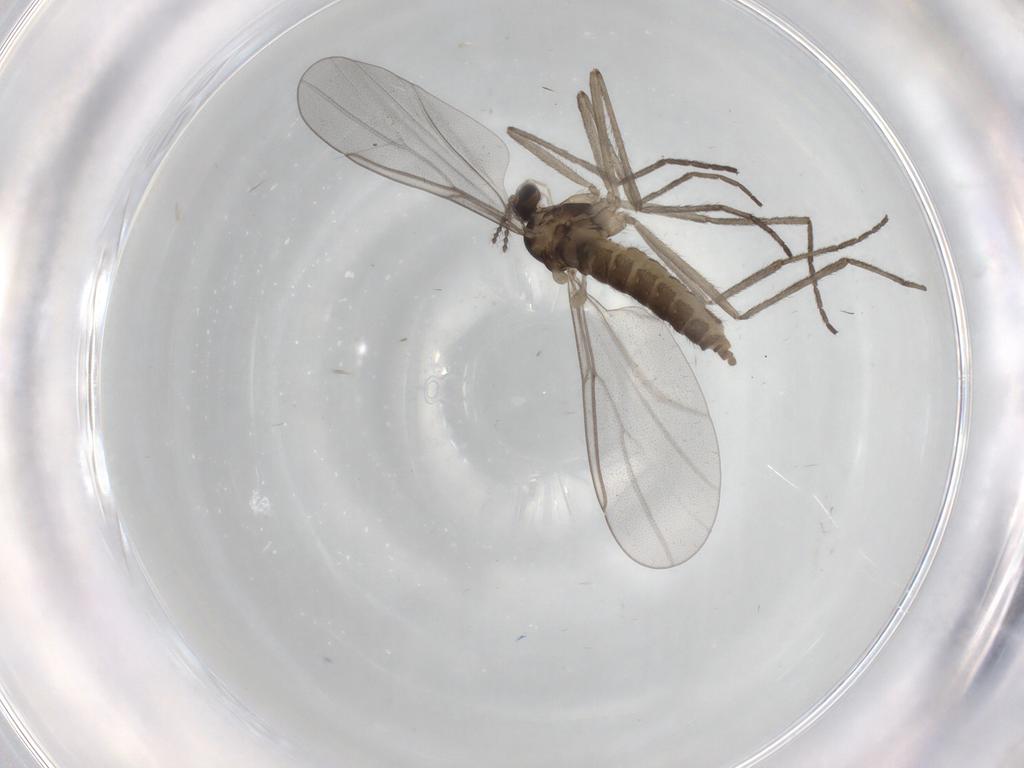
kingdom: Animalia
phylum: Arthropoda
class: Insecta
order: Diptera
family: Cecidomyiidae
